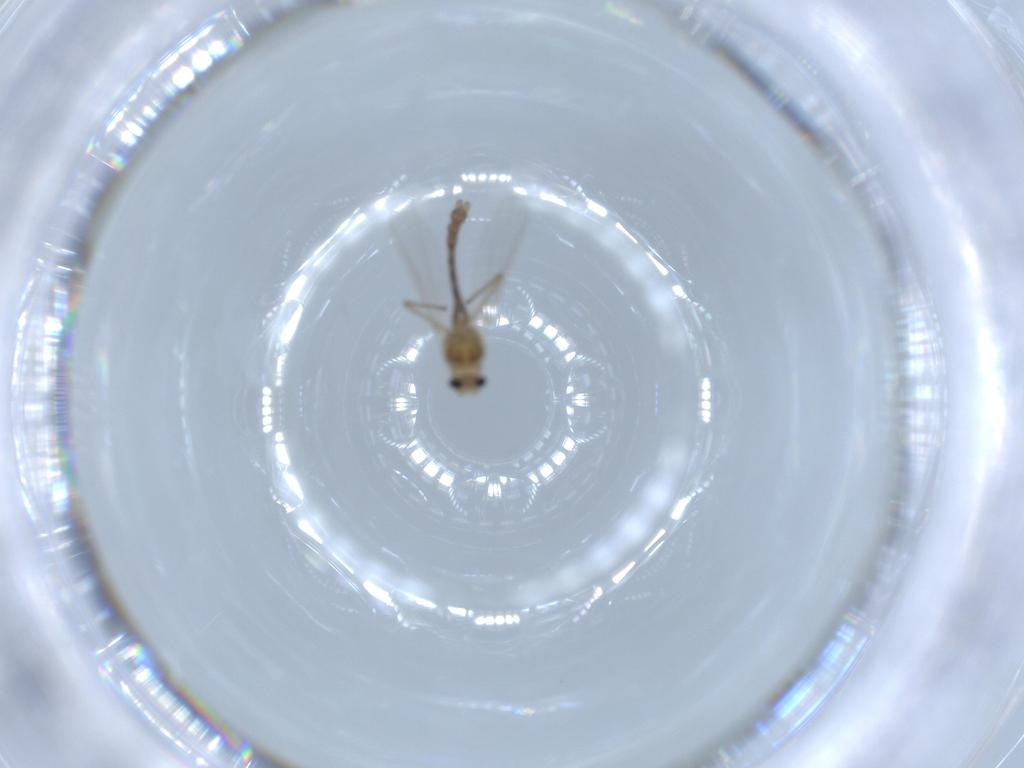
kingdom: Animalia
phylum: Arthropoda
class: Insecta
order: Diptera
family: Chironomidae
